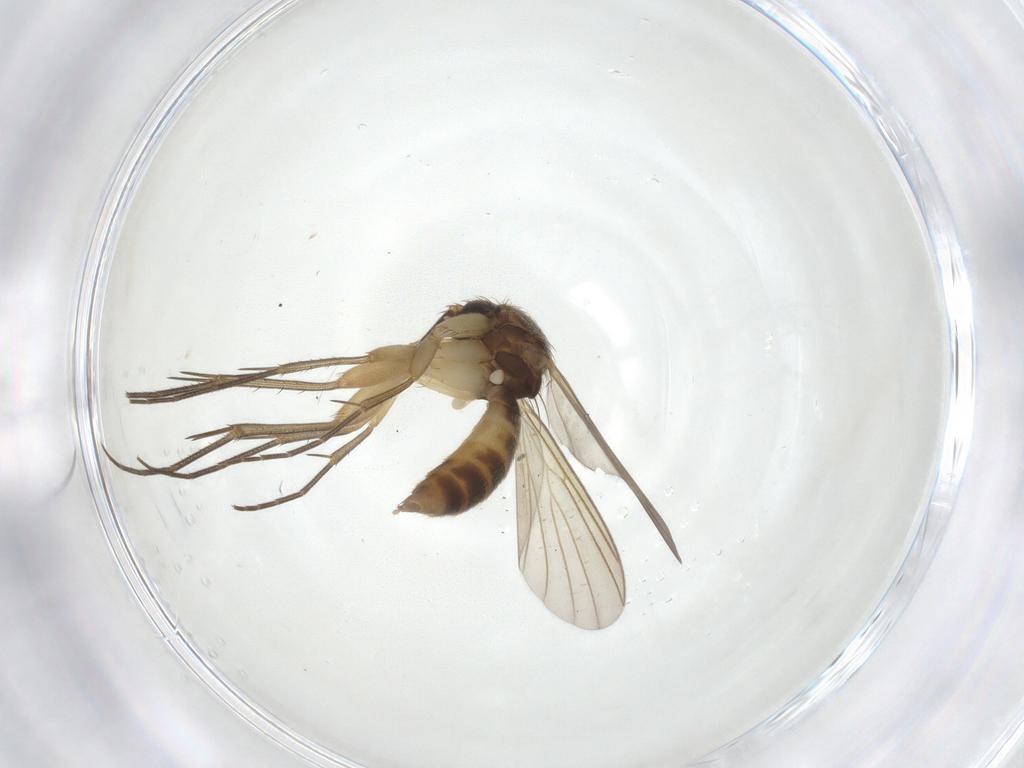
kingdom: Animalia
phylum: Arthropoda
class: Insecta
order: Diptera
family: Mycetophilidae
